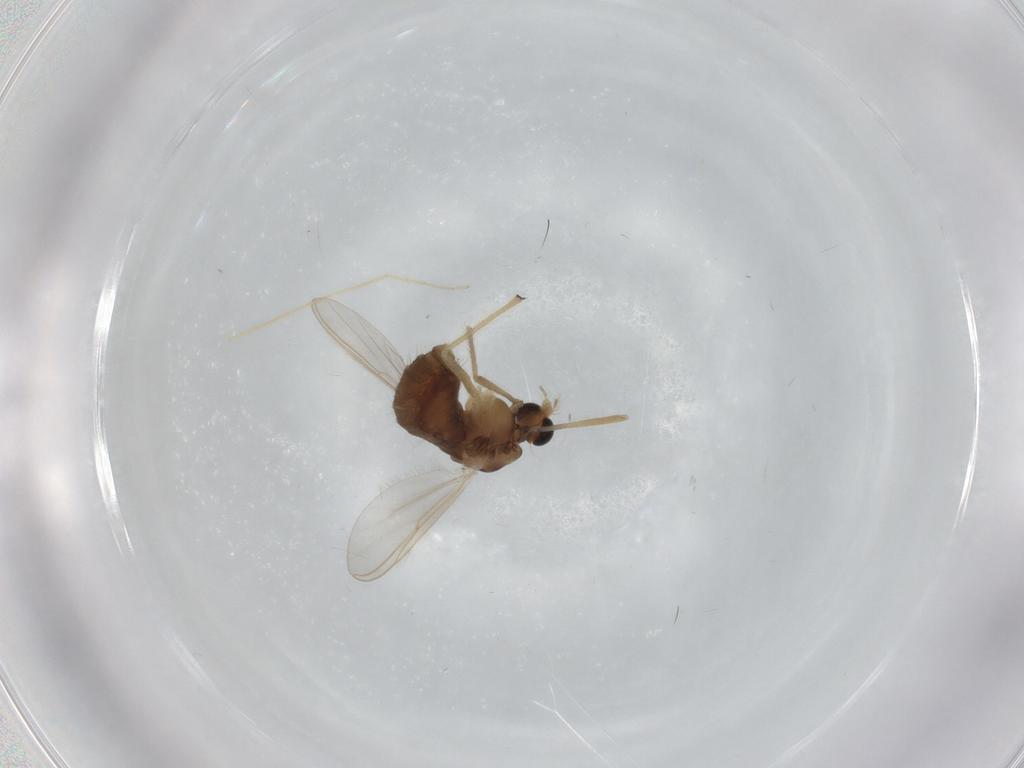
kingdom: Animalia
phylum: Arthropoda
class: Insecta
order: Diptera
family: Chironomidae
